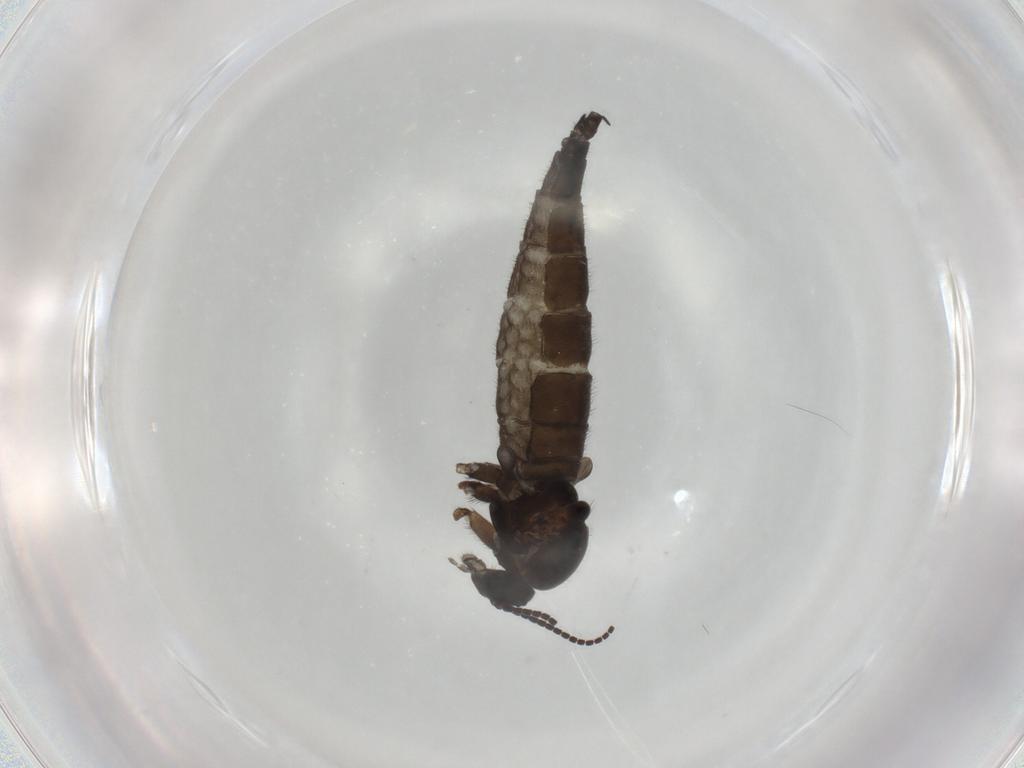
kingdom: Animalia
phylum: Arthropoda
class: Insecta
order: Diptera
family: Sciaridae
